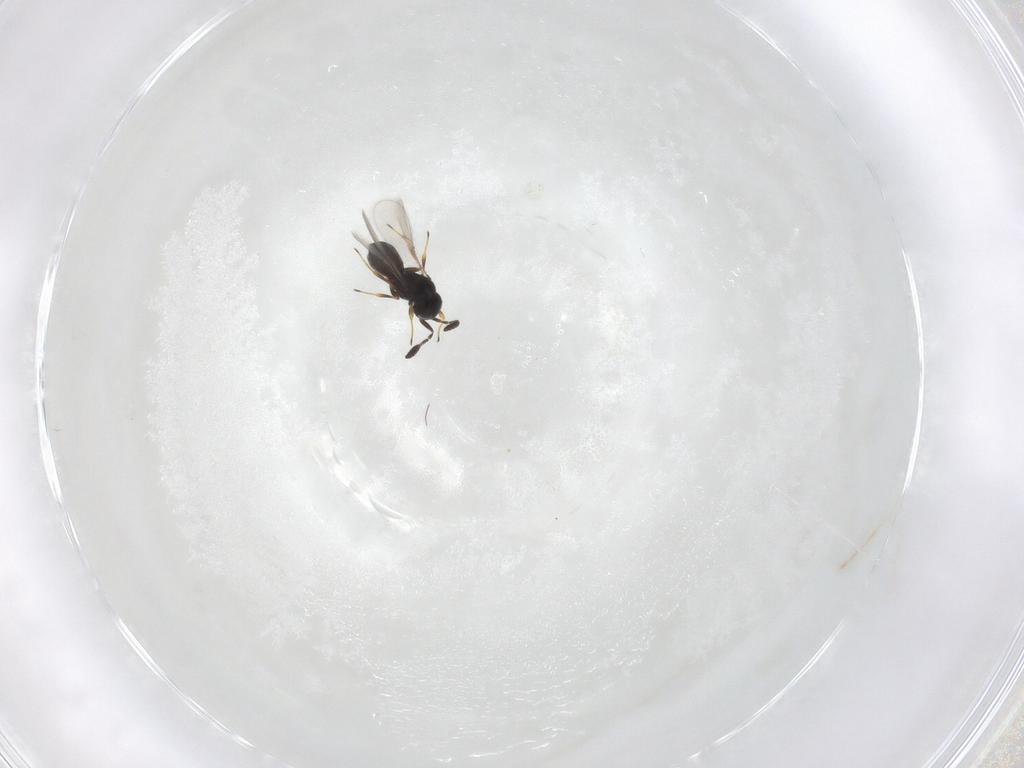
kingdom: Animalia
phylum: Arthropoda
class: Insecta
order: Hymenoptera
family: Scelionidae
